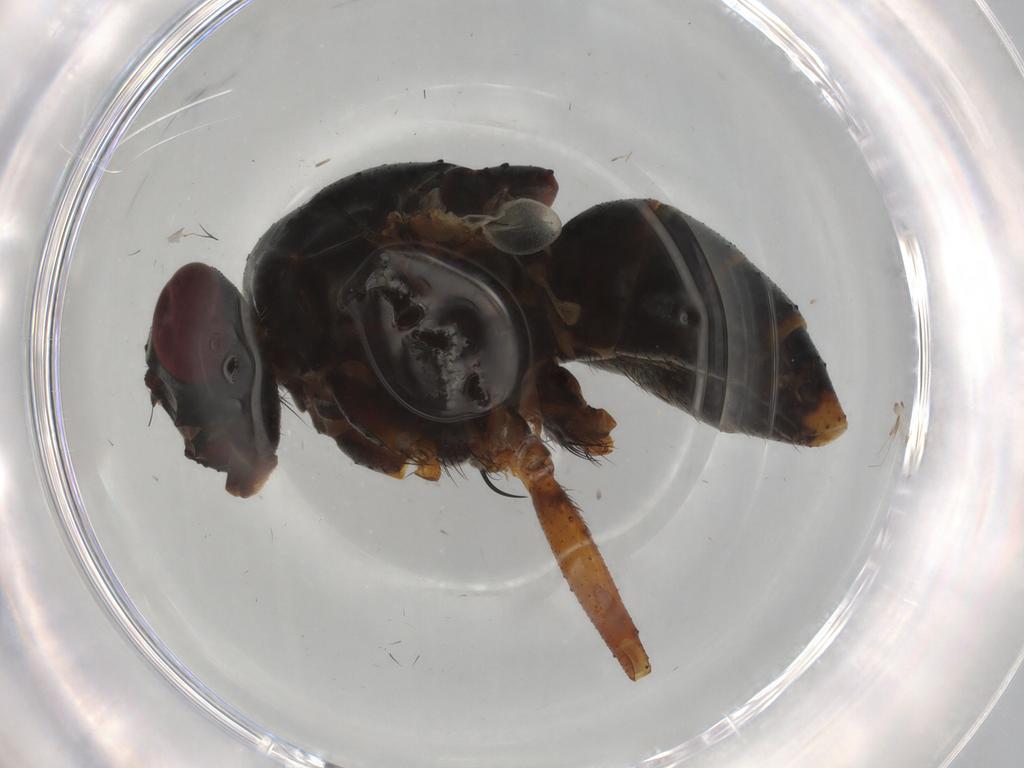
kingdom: Animalia
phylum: Arthropoda
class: Insecta
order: Diptera
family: Muscidae
